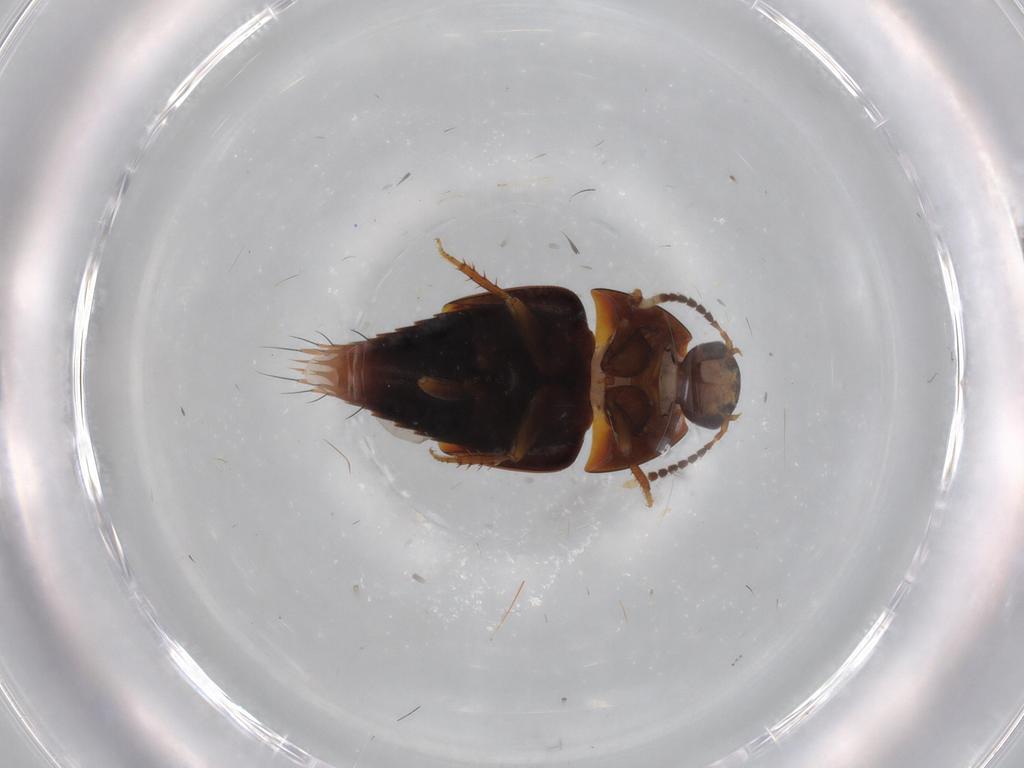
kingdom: Animalia
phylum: Arthropoda
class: Insecta
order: Coleoptera
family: Staphylinidae
